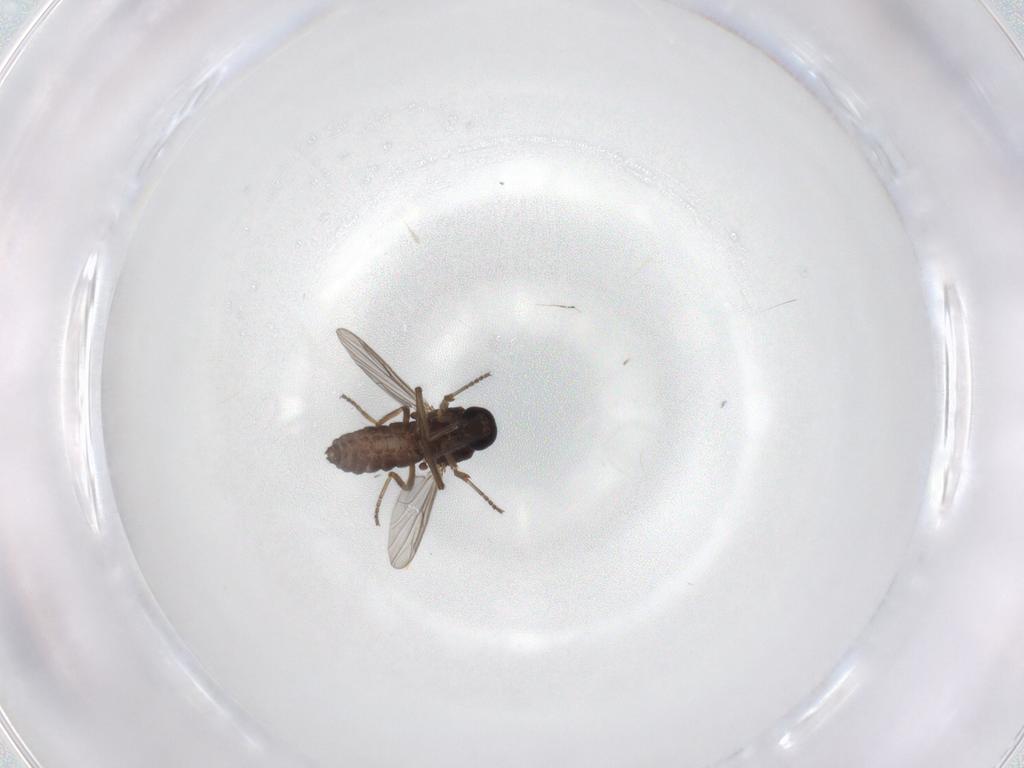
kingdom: Animalia
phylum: Arthropoda
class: Insecta
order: Diptera
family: Ceratopogonidae
